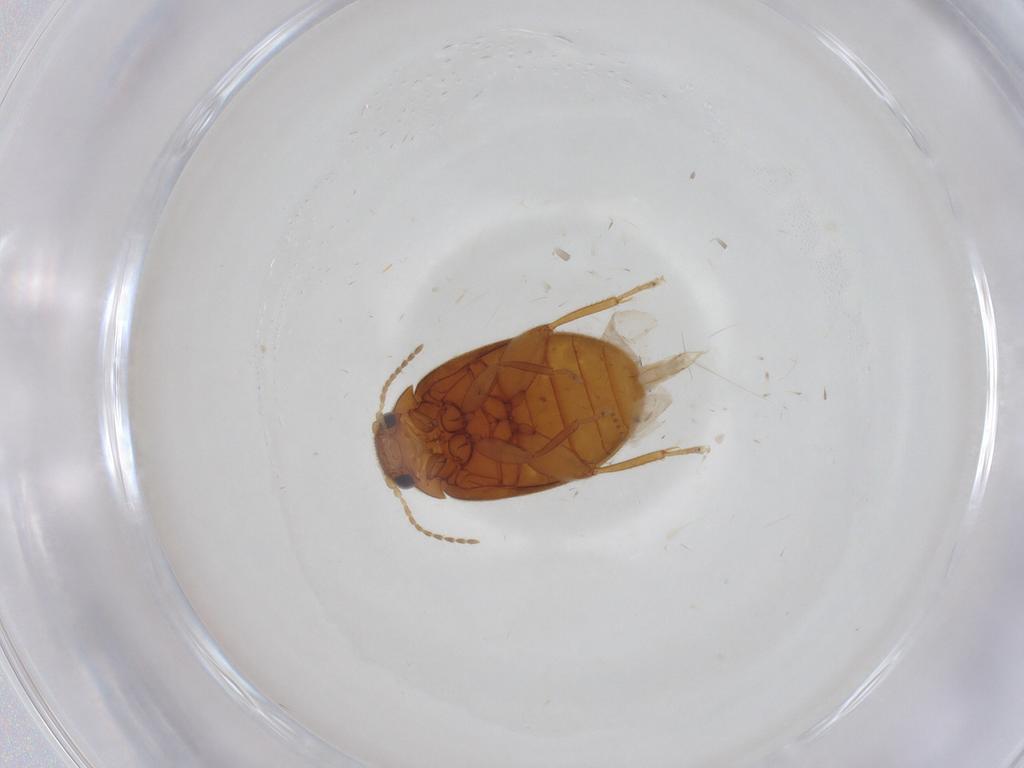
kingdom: Animalia
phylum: Arthropoda
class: Insecta
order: Coleoptera
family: Scirtidae
